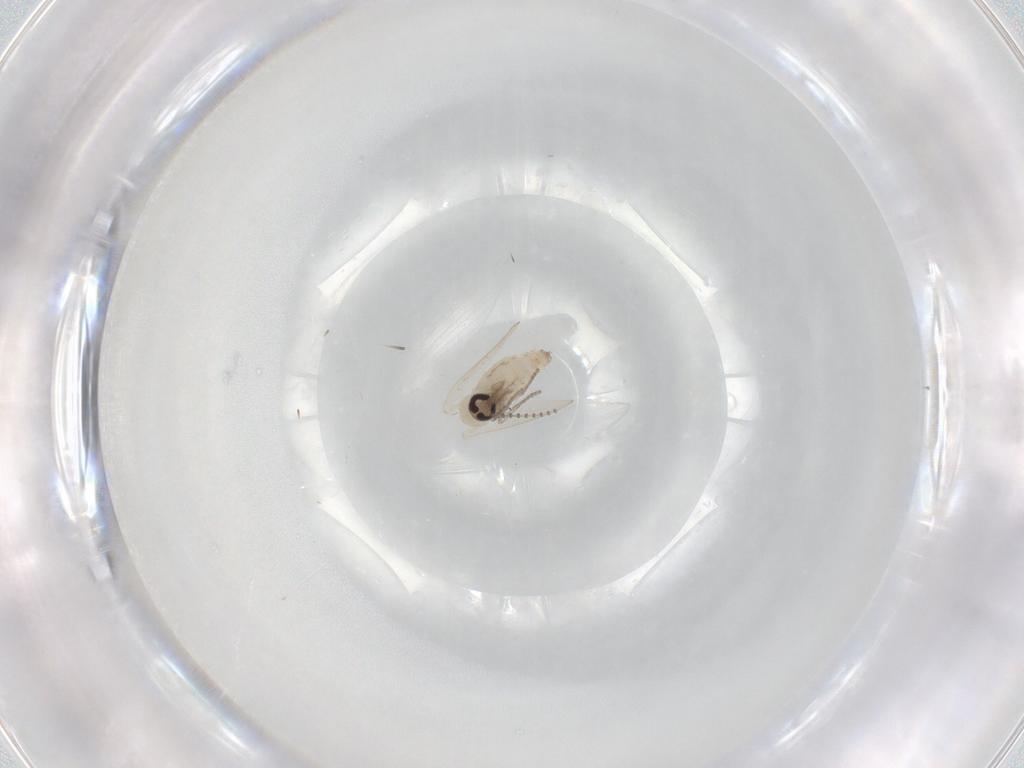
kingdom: Animalia
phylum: Arthropoda
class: Insecta
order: Diptera
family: Psychodidae
